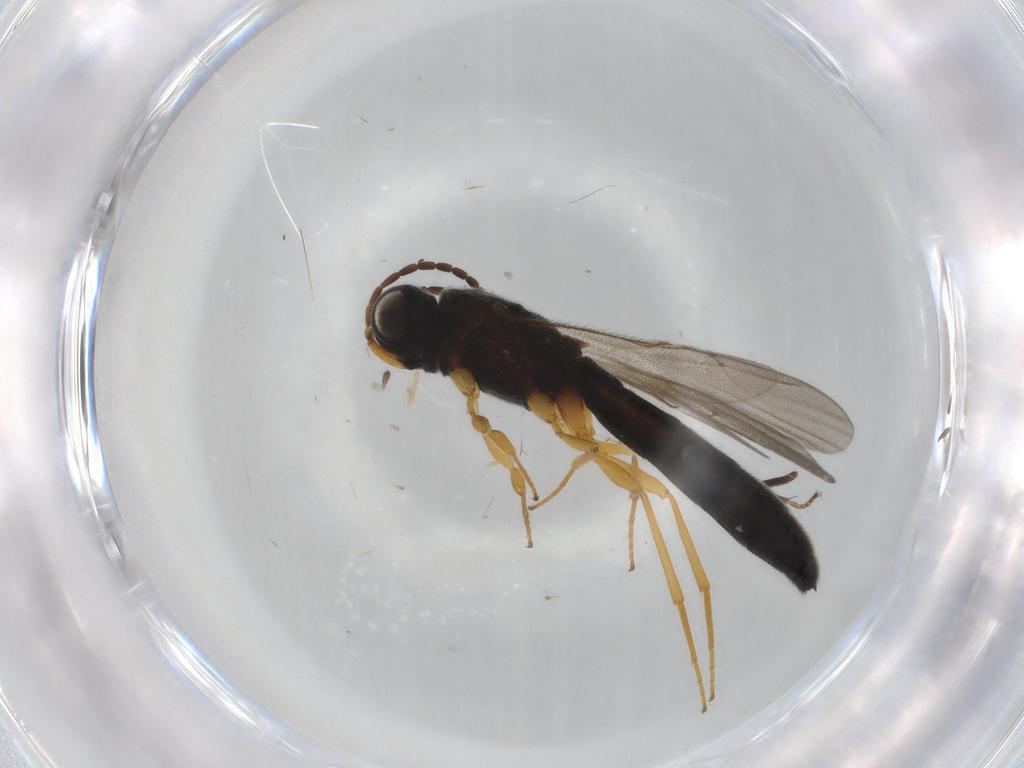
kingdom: Animalia
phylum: Arthropoda
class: Insecta
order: Hymenoptera
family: Scelionidae
